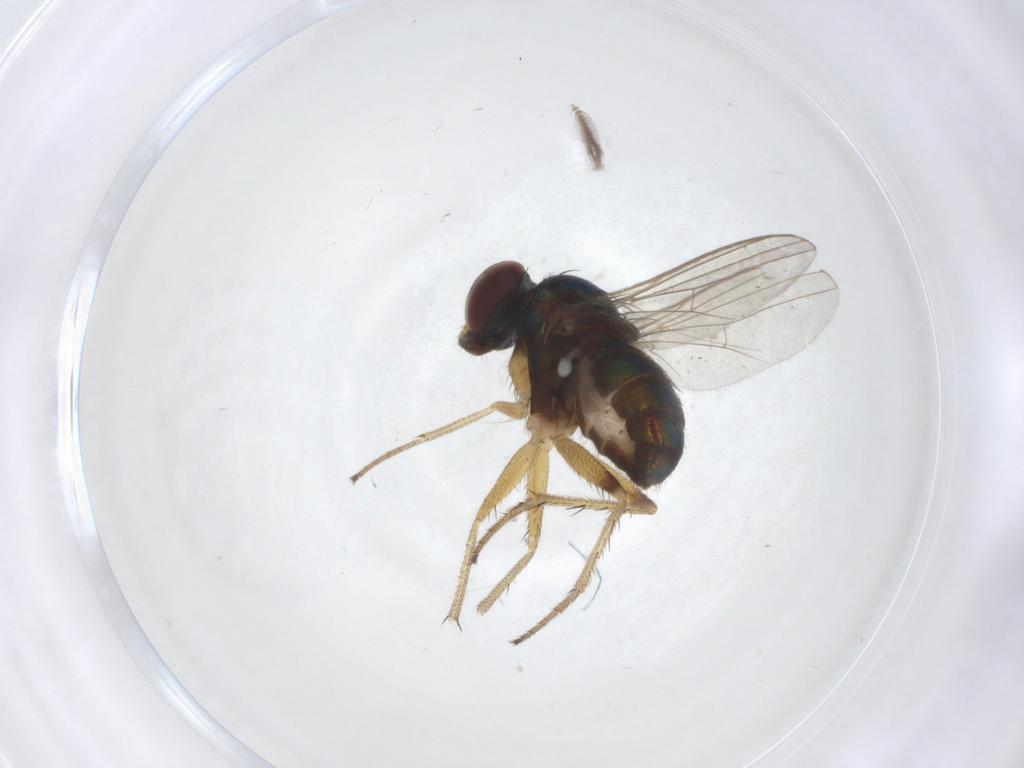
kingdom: Animalia
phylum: Arthropoda
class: Insecta
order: Diptera
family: Dolichopodidae
